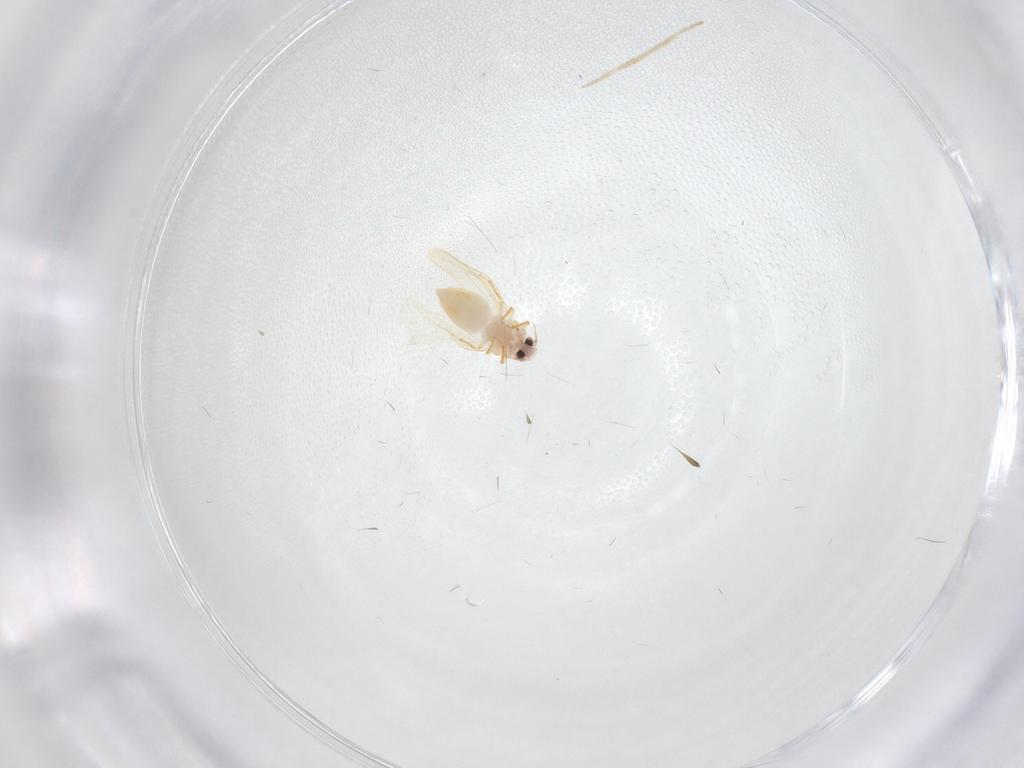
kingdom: Animalia
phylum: Arthropoda
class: Insecta
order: Hemiptera
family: Aleyrodidae
